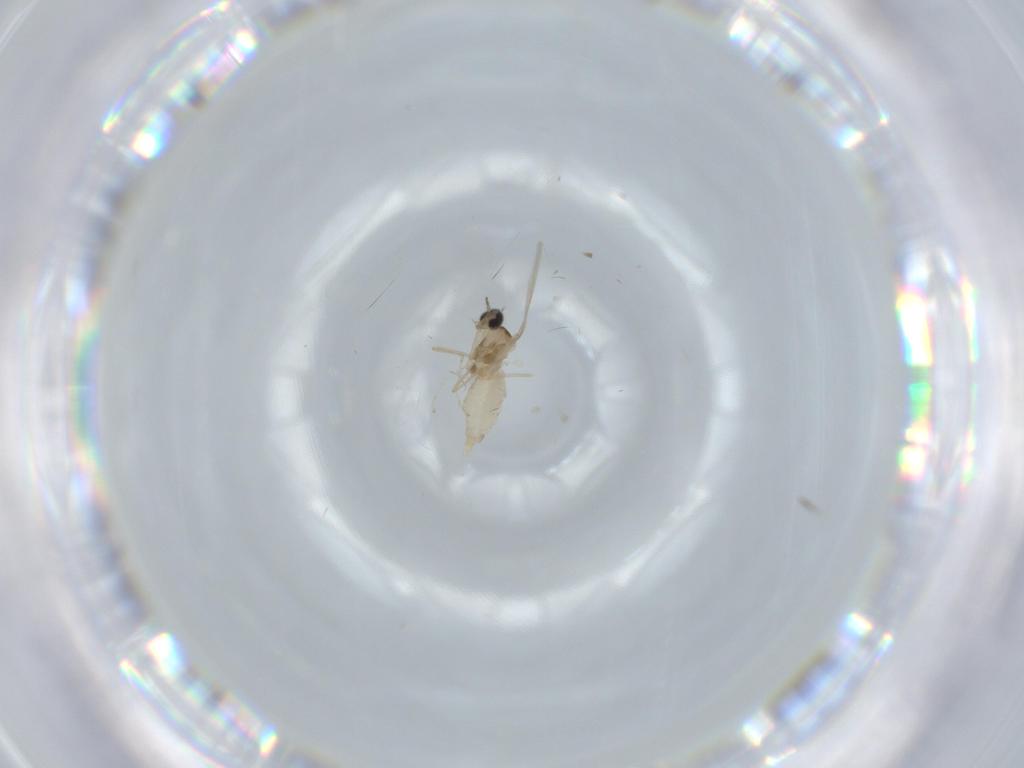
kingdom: Animalia
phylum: Arthropoda
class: Insecta
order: Diptera
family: Cecidomyiidae
